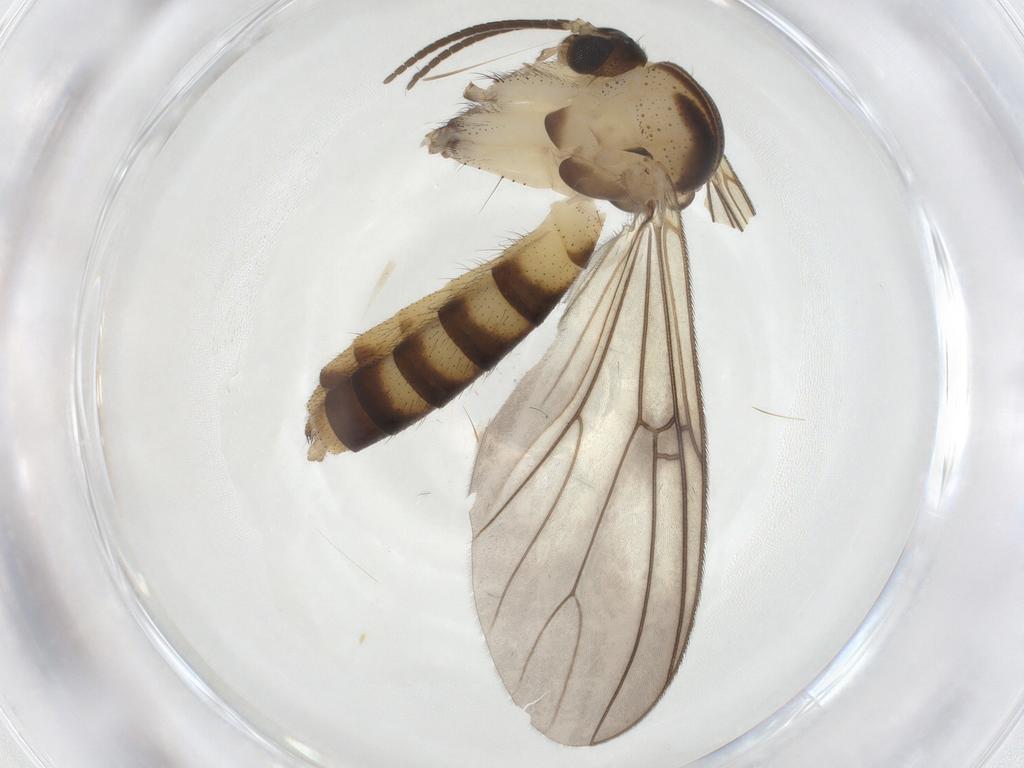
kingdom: Animalia
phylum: Arthropoda
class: Insecta
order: Diptera
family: Mycetophilidae
